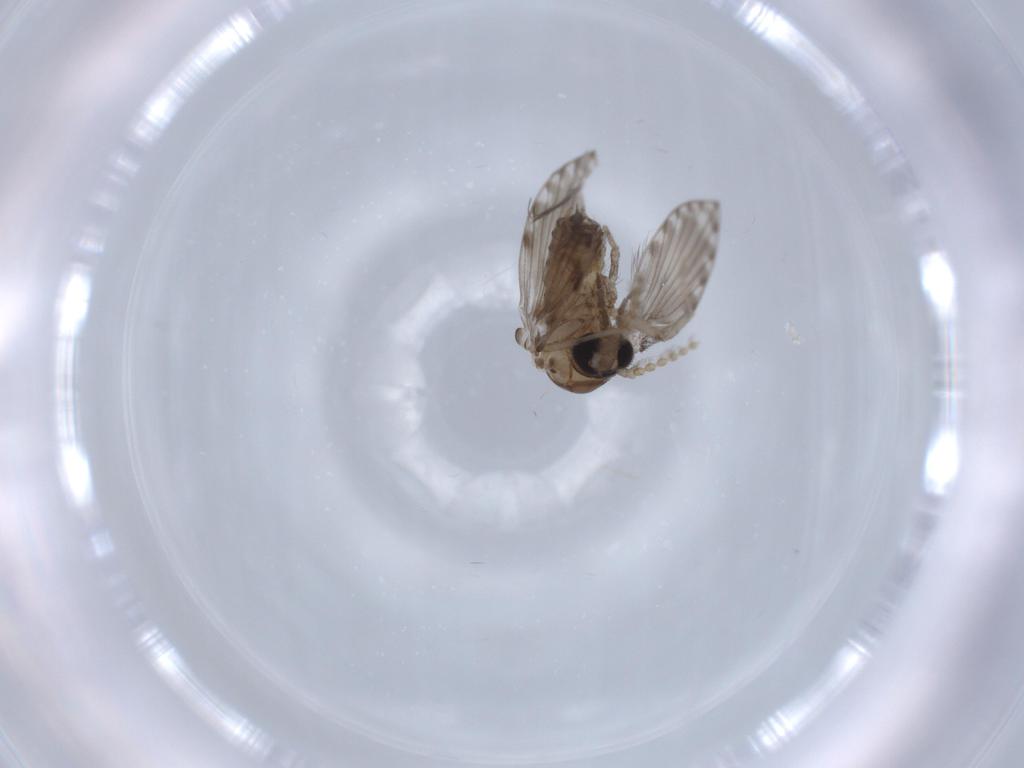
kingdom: Animalia
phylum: Arthropoda
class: Insecta
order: Diptera
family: Psychodidae
